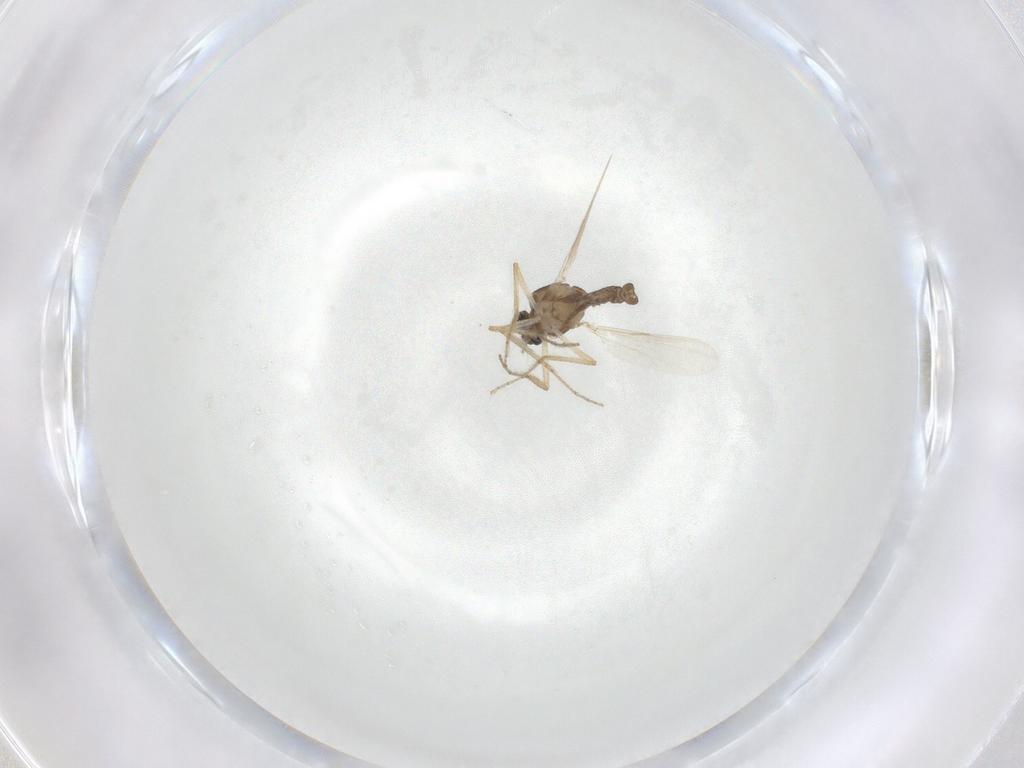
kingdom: Animalia
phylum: Arthropoda
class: Insecta
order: Diptera
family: Ceratopogonidae
